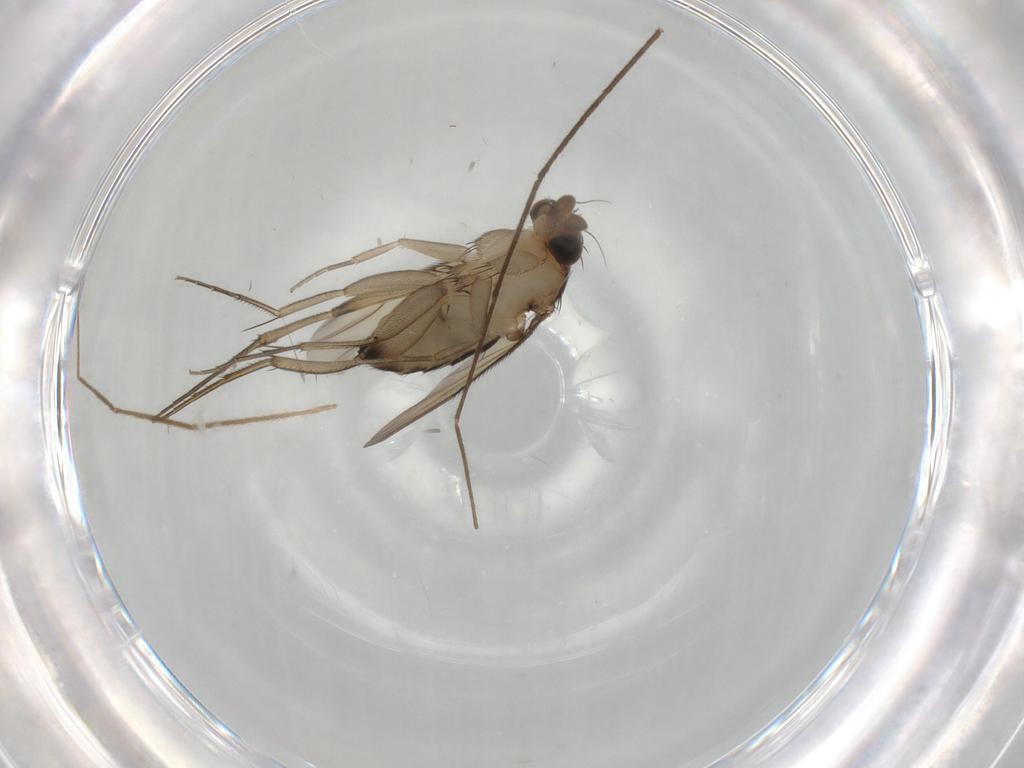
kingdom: Animalia
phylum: Arthropoda
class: Insecta
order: Diptera
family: Phoridae
